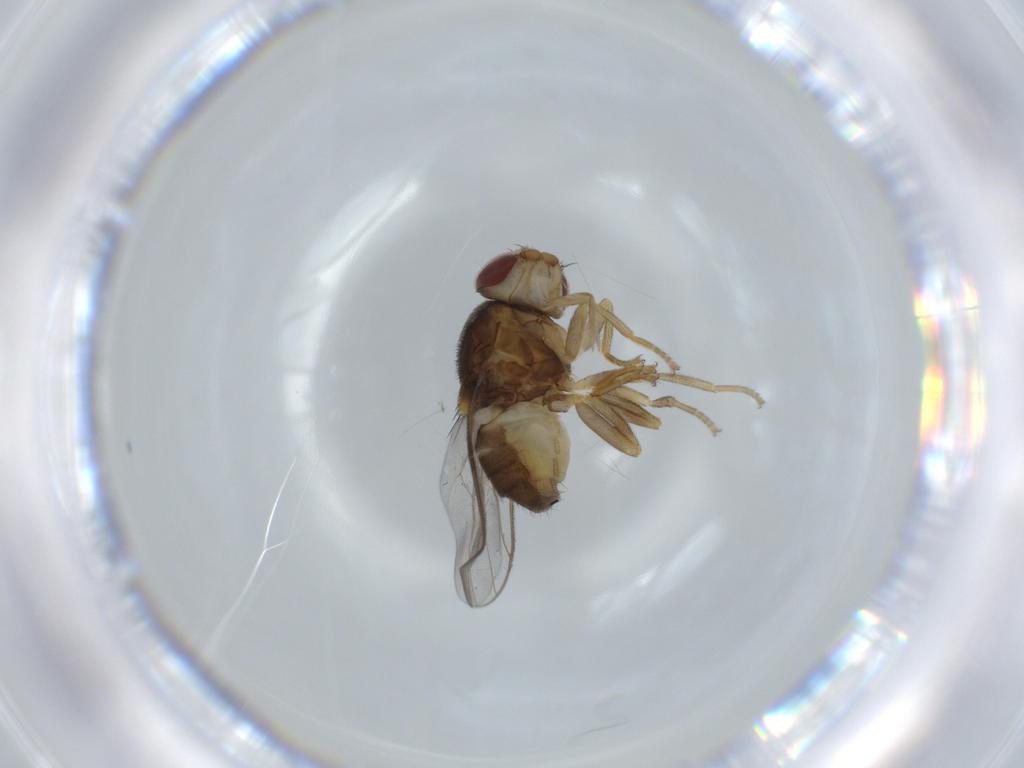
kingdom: Animalia
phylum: Arthropoda
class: Insecta
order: Diptera
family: Chloropidae
